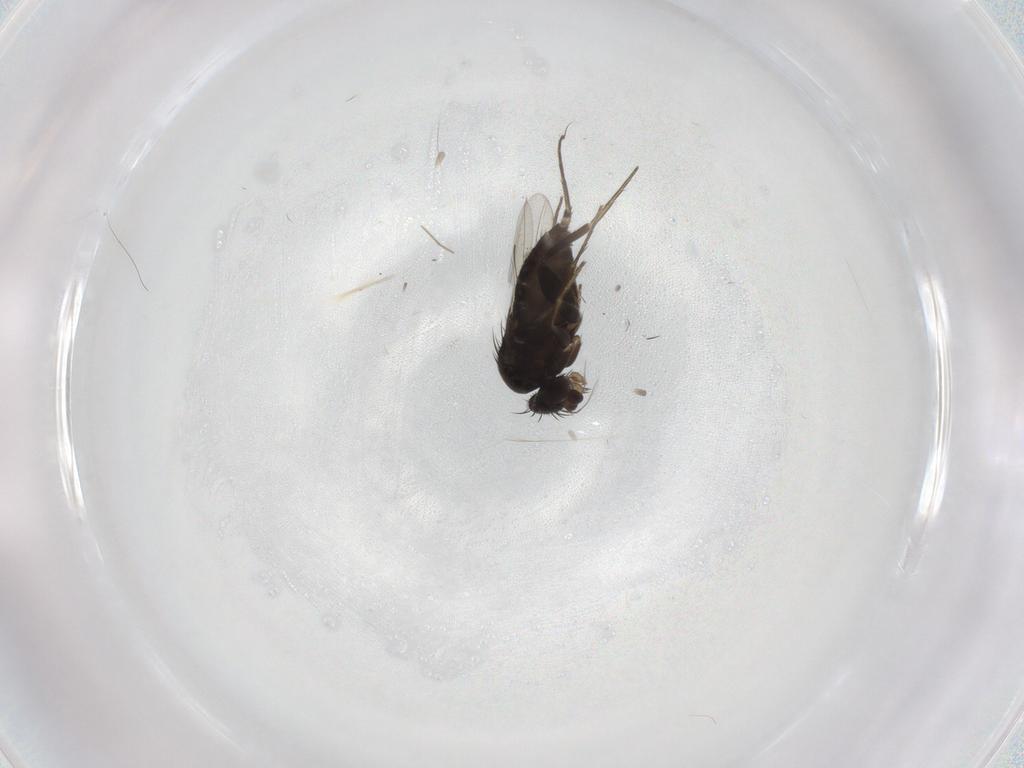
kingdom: Animalia
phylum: Arthropoda
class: Insecta
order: Diptera
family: Phoridae
